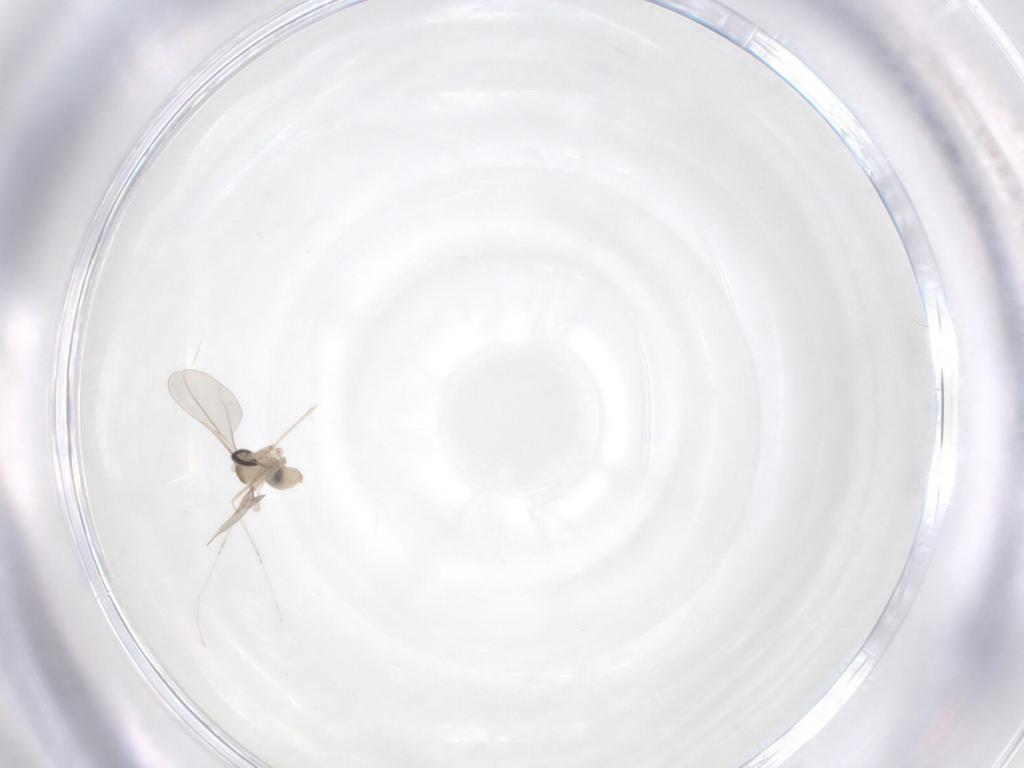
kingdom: Animalia
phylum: Arthropoda
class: Insecta
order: Diptera
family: Cecidomyiidae
